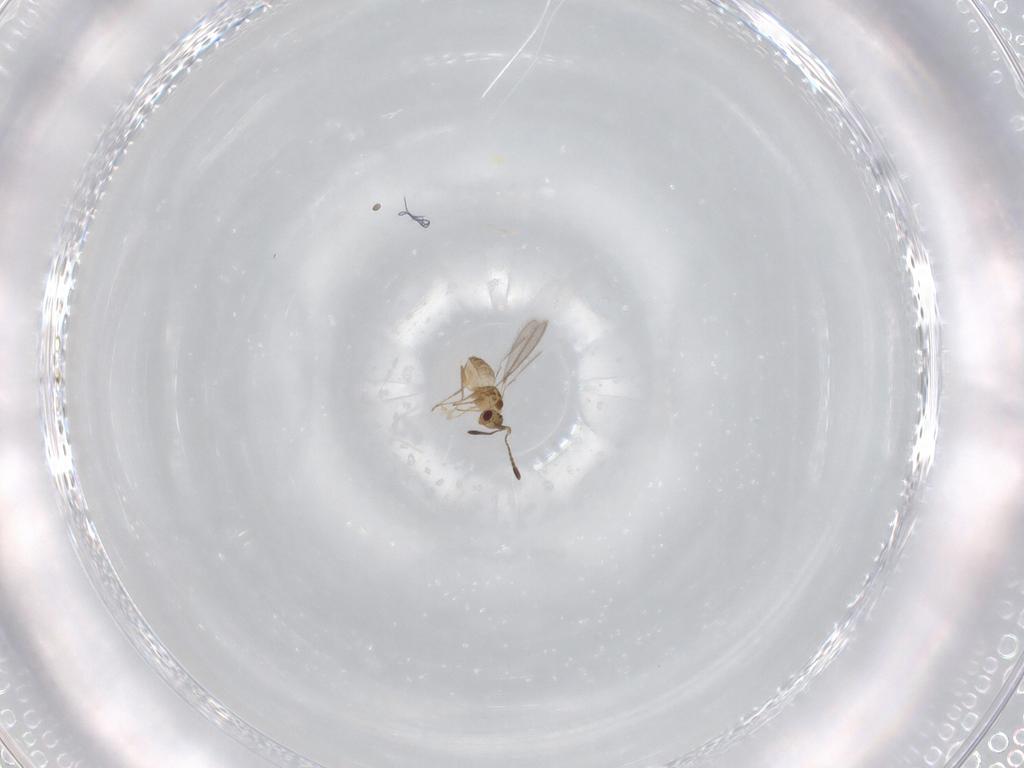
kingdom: Animalia
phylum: Arthropoda
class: Insecta
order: Hymenoptera
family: Mymaridae
